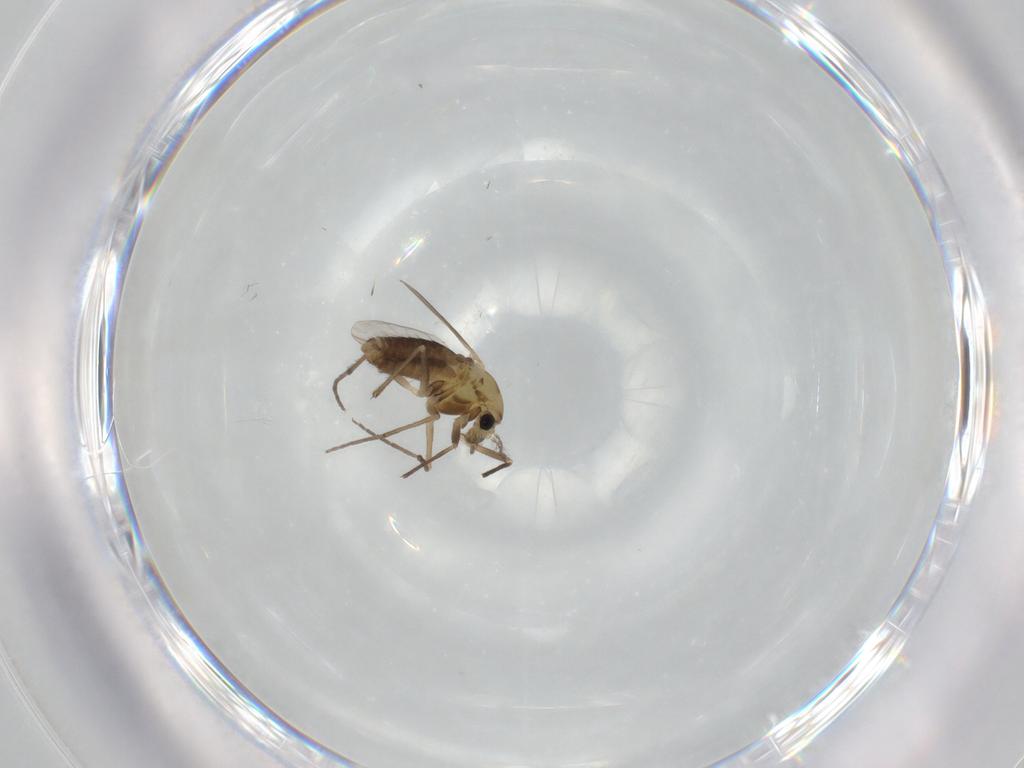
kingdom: Animalia
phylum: Arthropoda
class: Insecta
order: Diptera
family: Chironomidae
